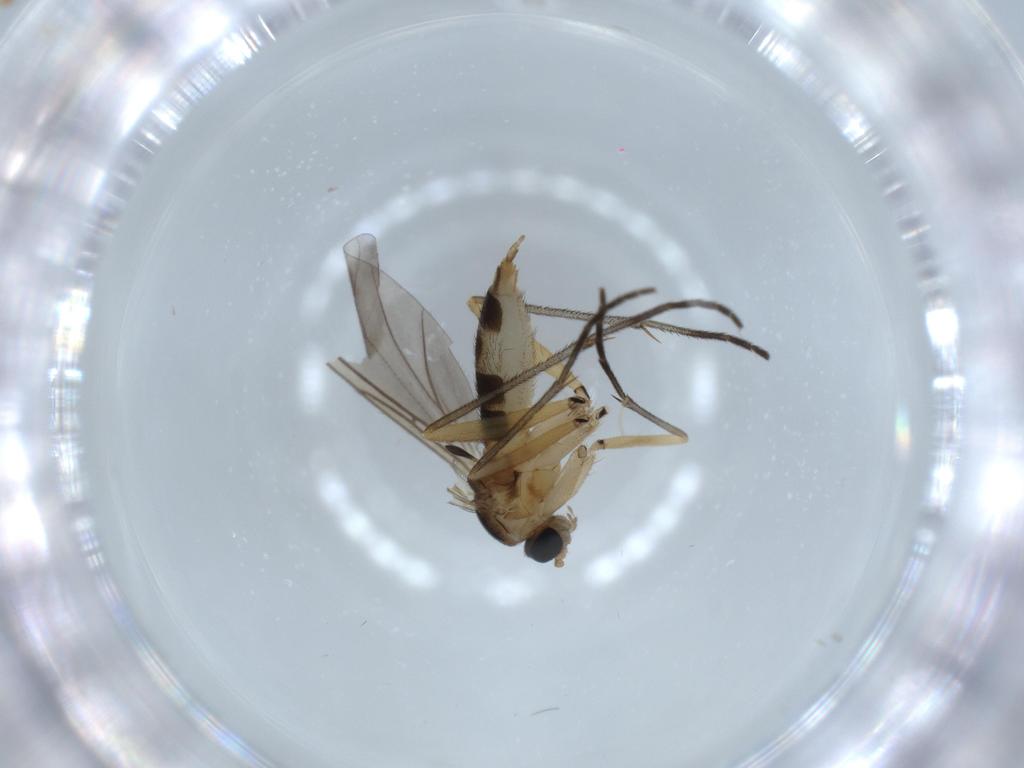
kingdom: Animalia
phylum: Arthropoda
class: Insecta
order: Diptera
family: Sciaridae
